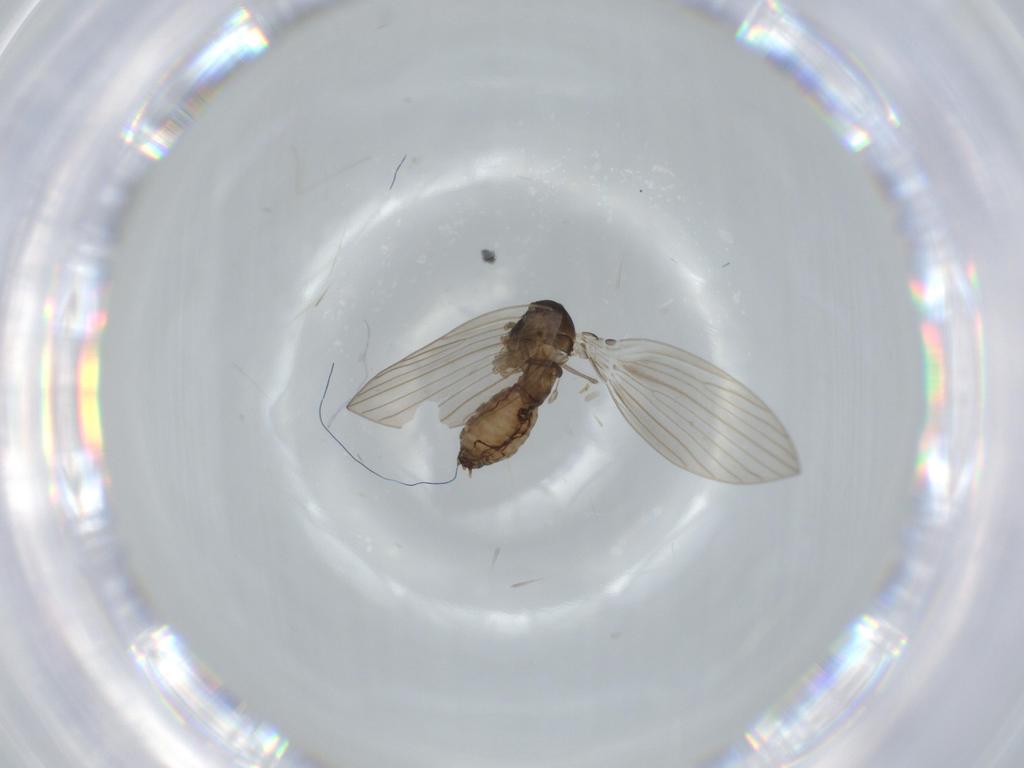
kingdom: Animalia
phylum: Arthropoda
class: Insecta
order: Diptera
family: Psychodidae
